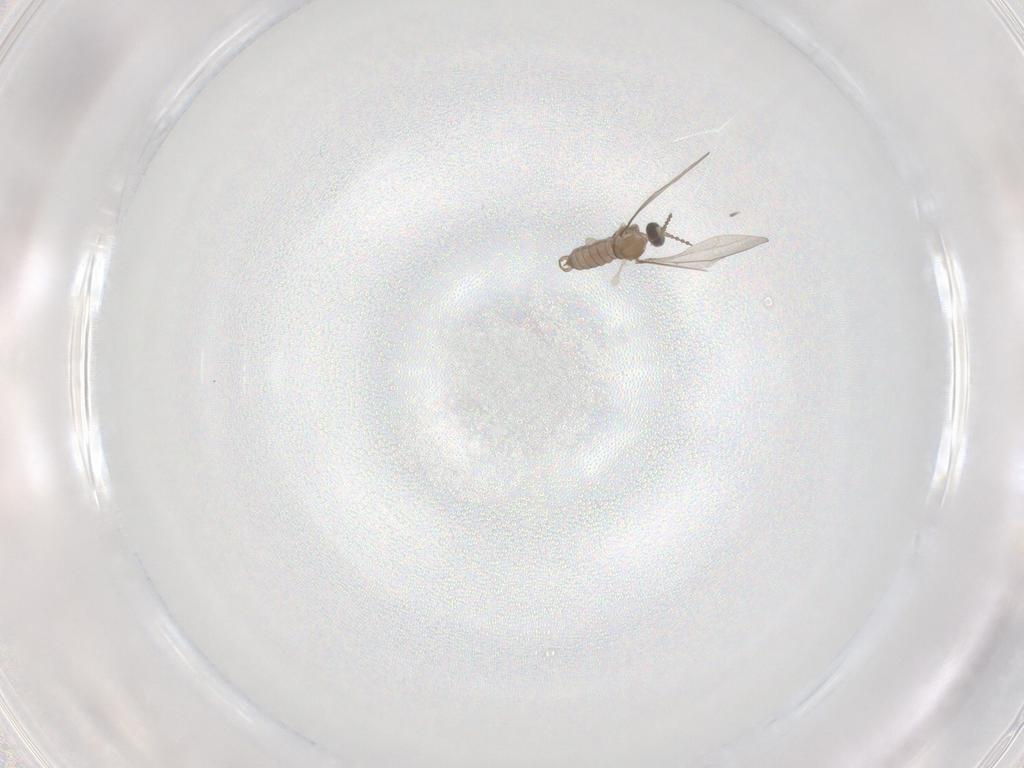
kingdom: Animalia
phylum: Arthropoda
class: Insecta
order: Diptera
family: Cecidomyiidae
